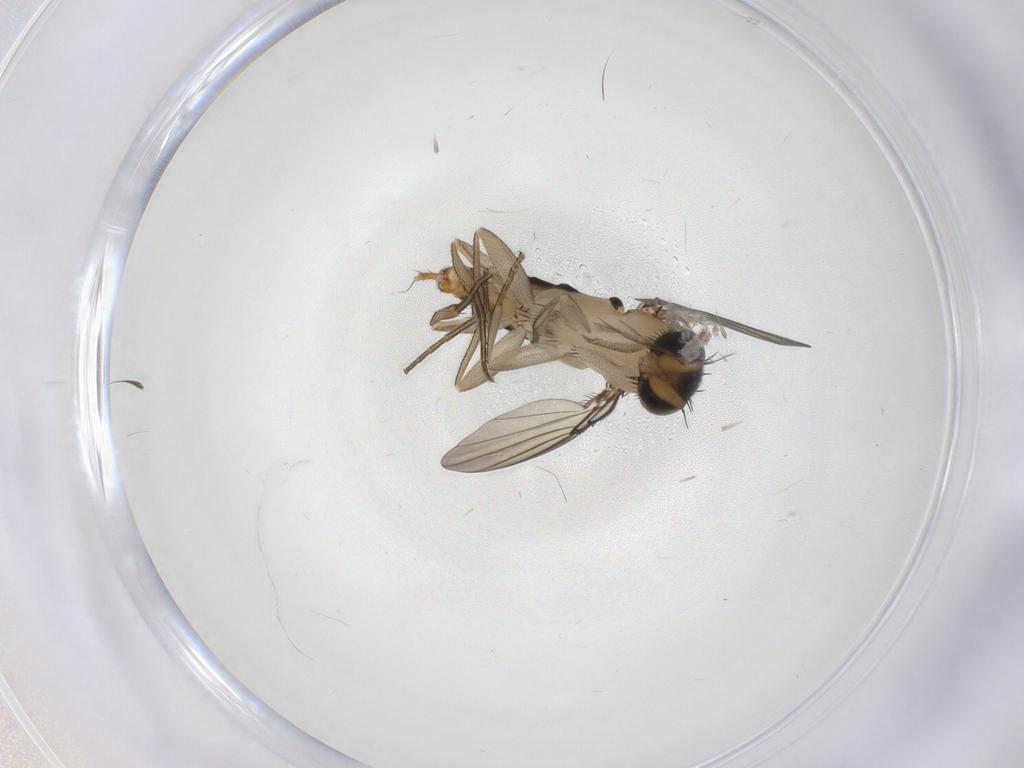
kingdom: Animalia
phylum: Arthropoda
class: Insecta
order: Diptera
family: Phoridae
